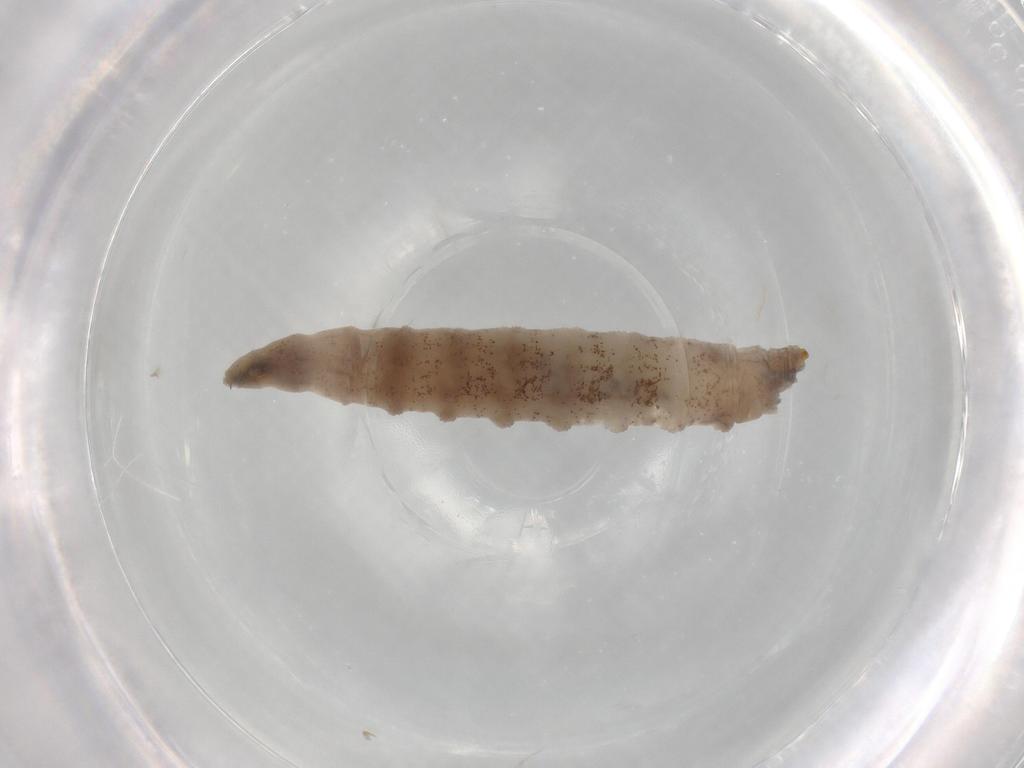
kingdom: Animalia
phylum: Arthropoda
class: Insecta
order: Diptera
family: Drosophilidae
